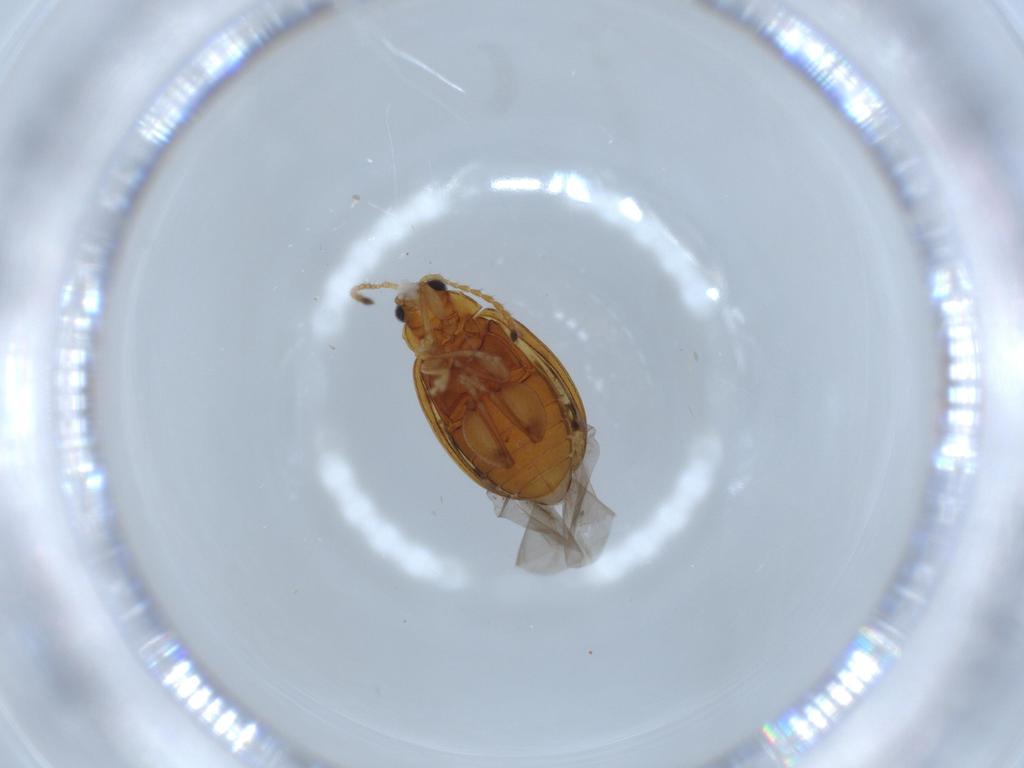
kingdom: Animalia
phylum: Arthropoda
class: Insecta
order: Coleoptera
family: Chrysomelidae
